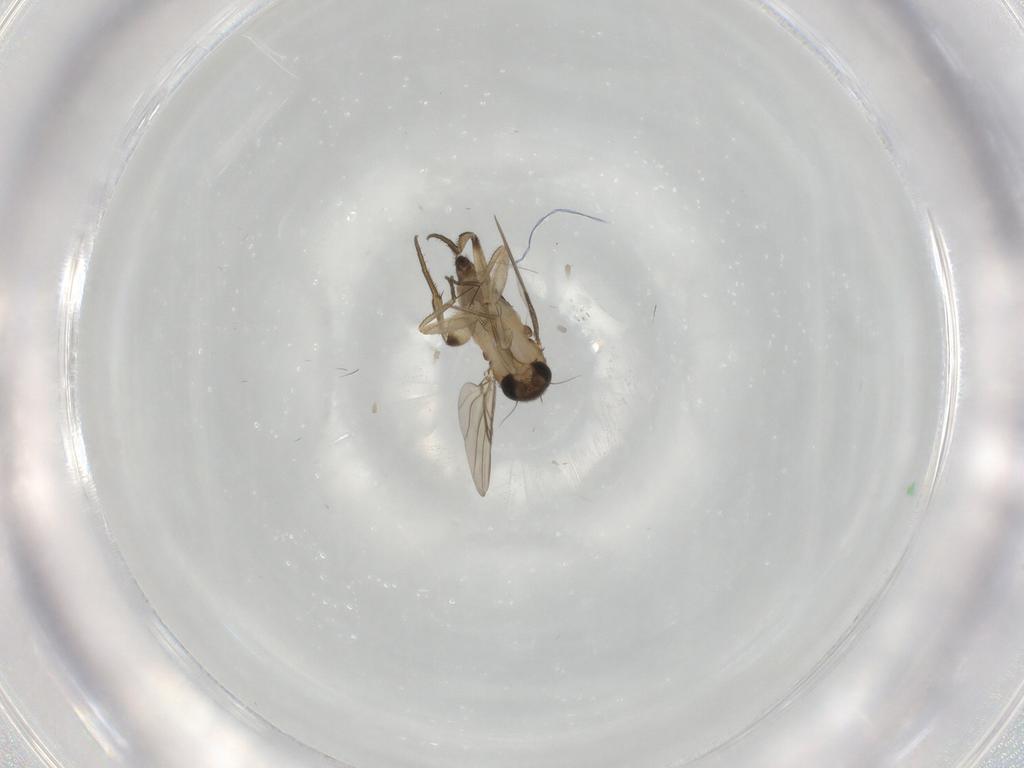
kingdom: Animalia
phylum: Arthropoda
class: Insecta
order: Diptera
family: Phoridae
